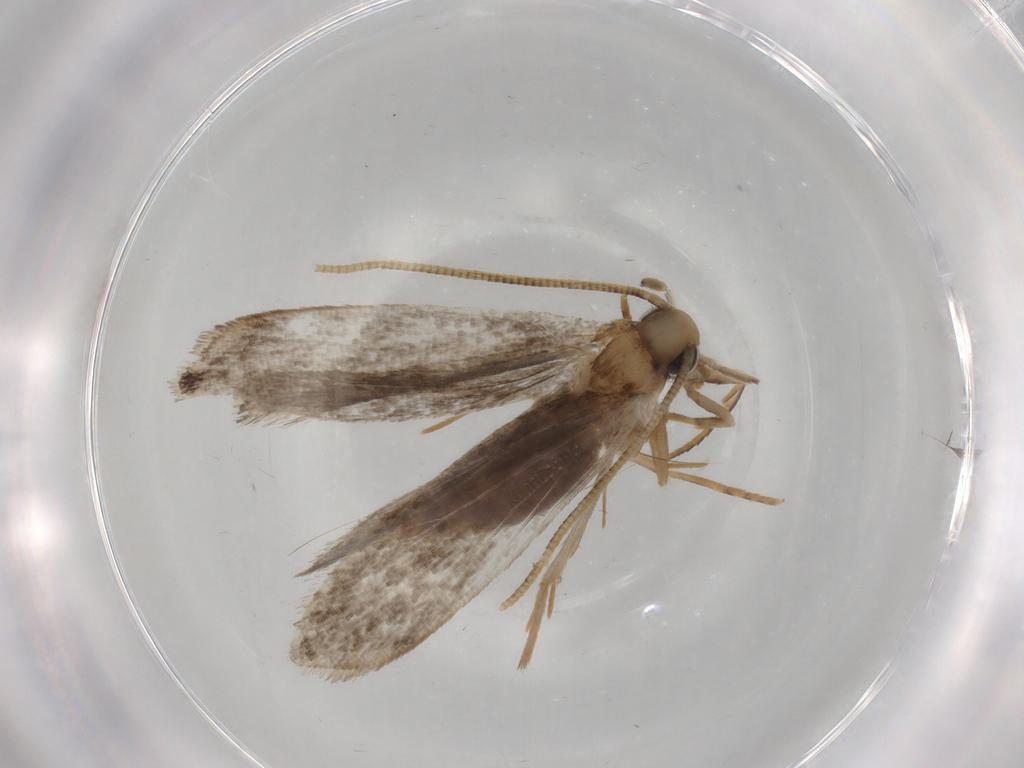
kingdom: Animalia
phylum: Arthropoda
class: Insecta
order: Lepidoptera
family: Tineidae
